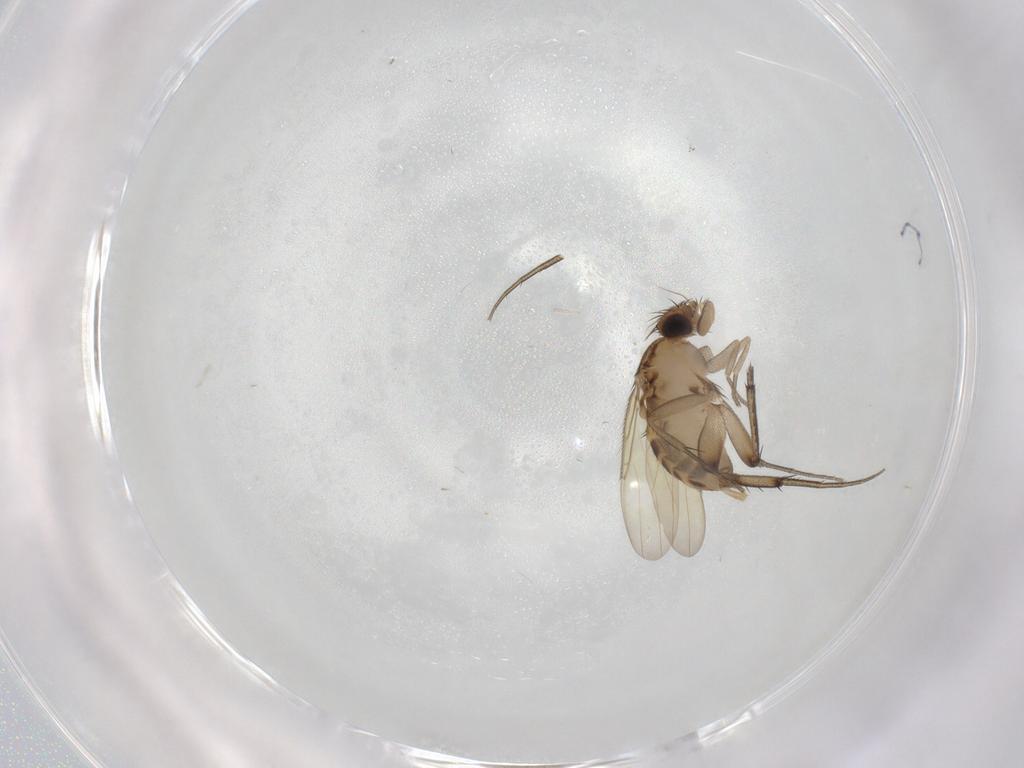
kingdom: Animalia
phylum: Arthropoda
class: Insecta
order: Diptera
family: Phoridae
